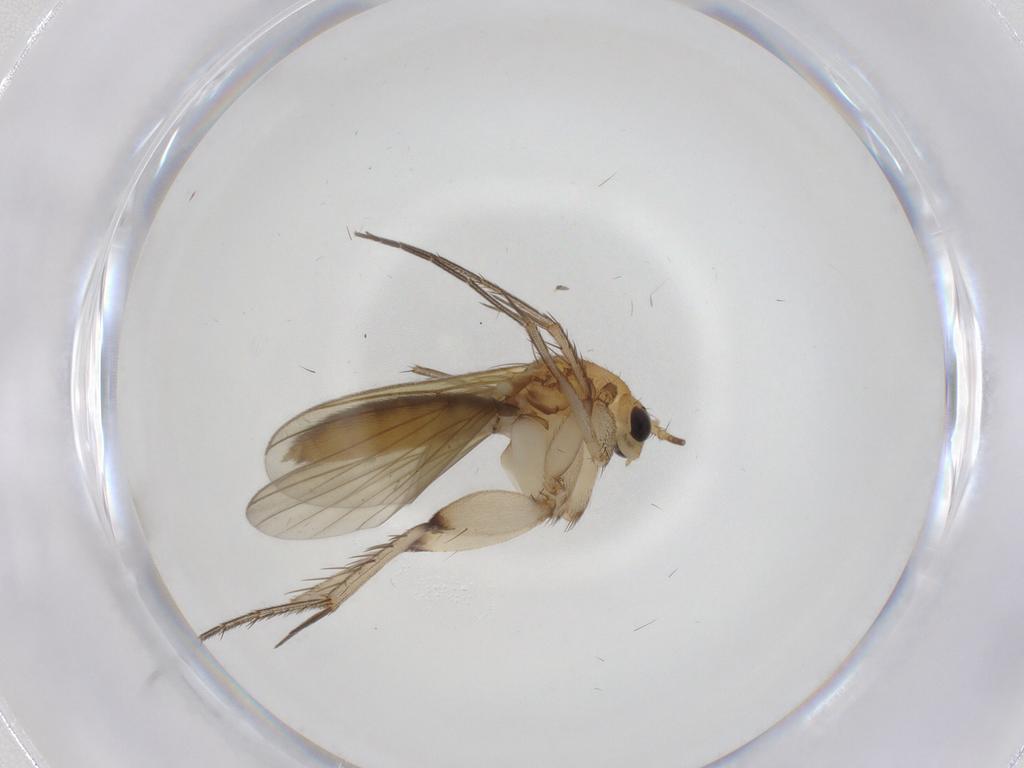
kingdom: Animalia
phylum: Arthropoda
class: Insecta
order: Diptera
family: Mycetophilidae
